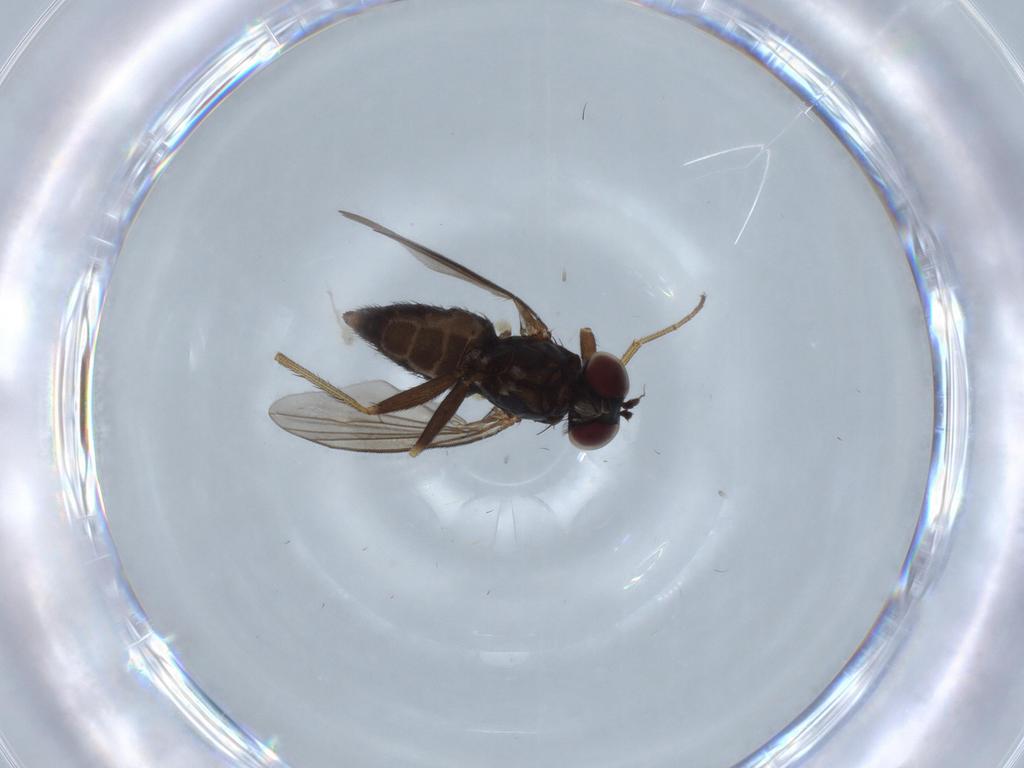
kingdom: Animalia
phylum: Arthropoda
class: Insecta
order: Diptera
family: Dolichopodidae
